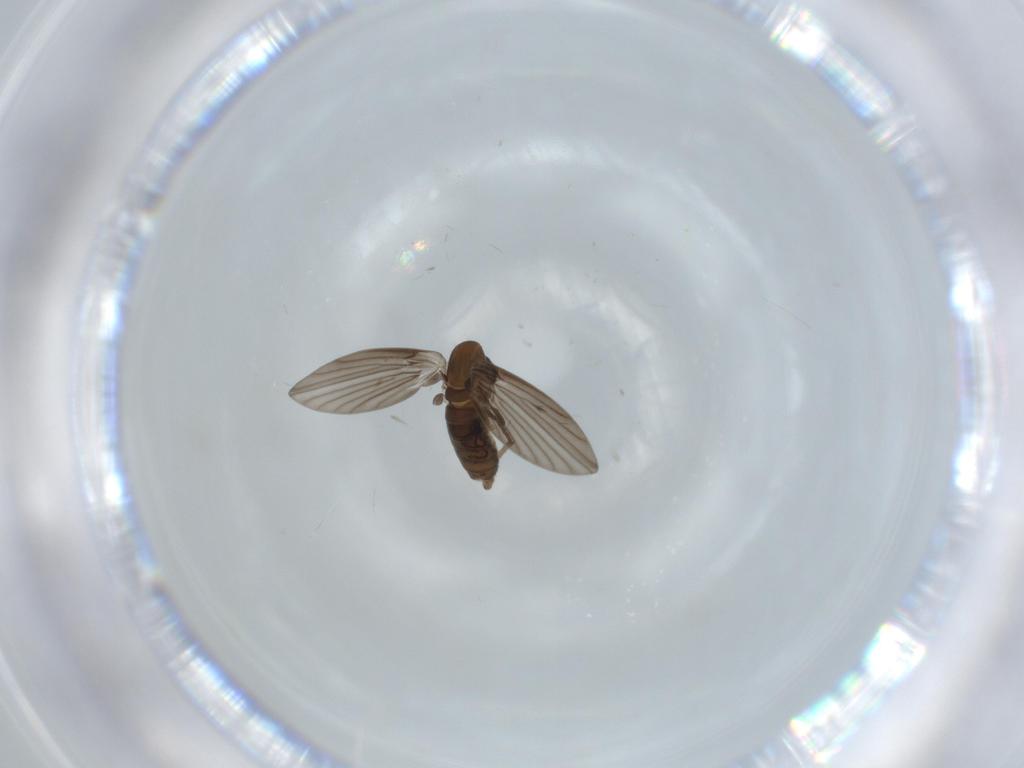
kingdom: Animalia
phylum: Arthropoda
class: Insecta
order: Diptera
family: Psychodidae
